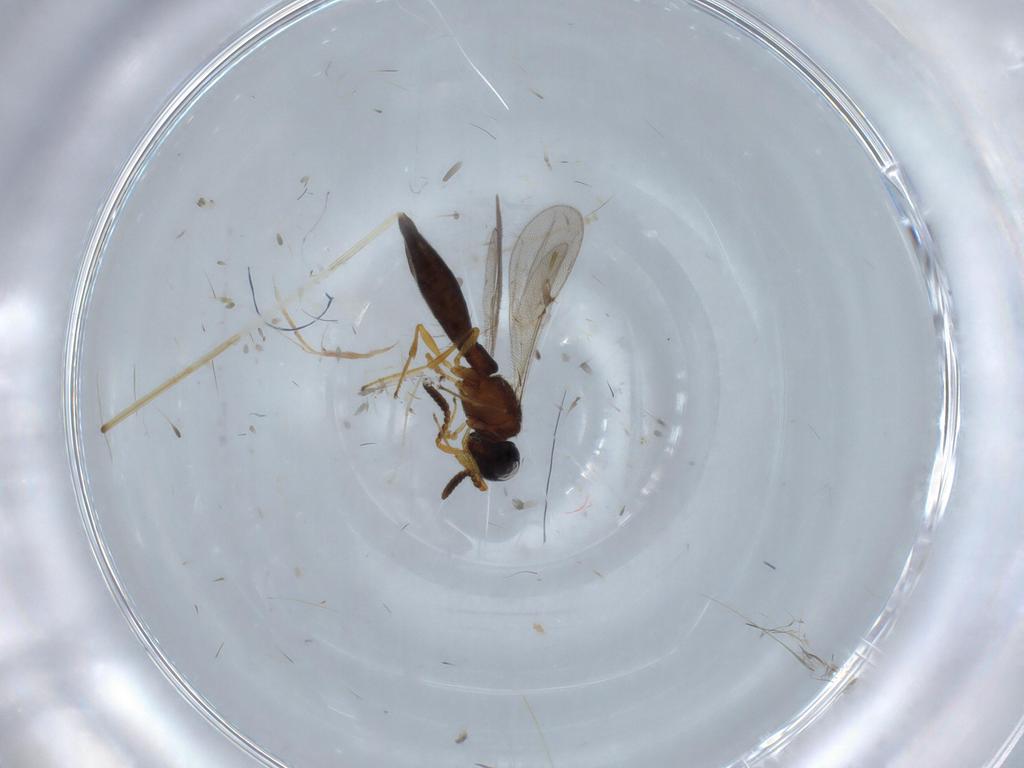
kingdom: Animalia
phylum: Arthropoda
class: Insecta
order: Hymenoptera
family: Scelionidae
